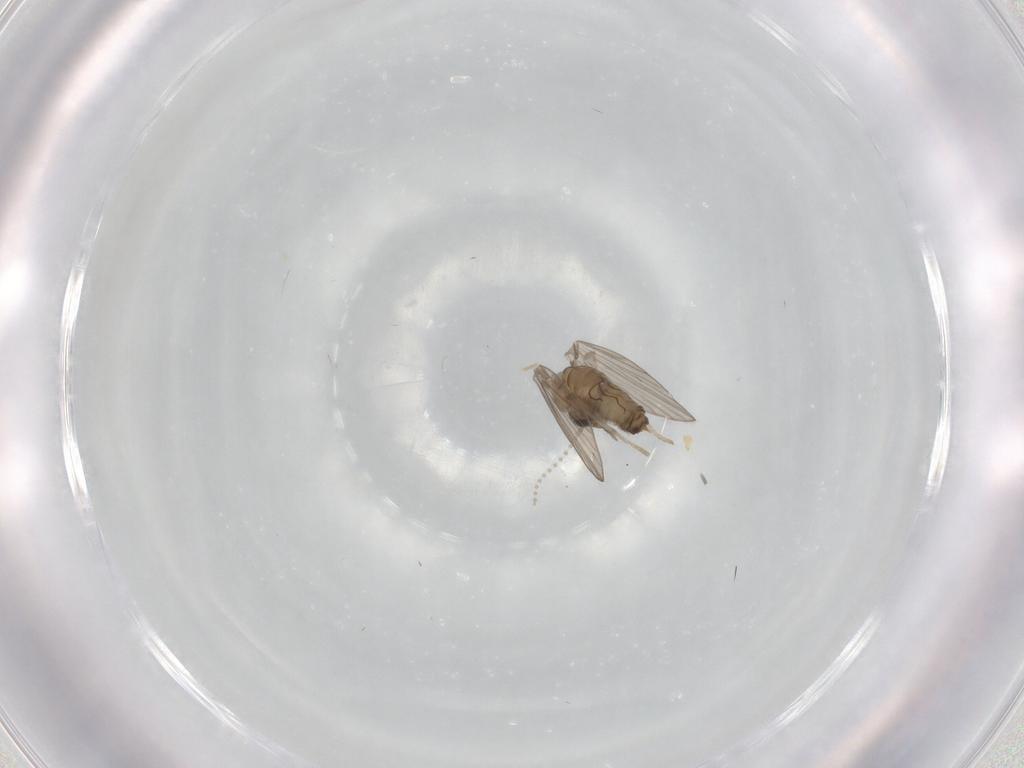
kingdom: Animalia
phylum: Arthropoda
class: Insecta
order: Diptera
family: Psychodidae
